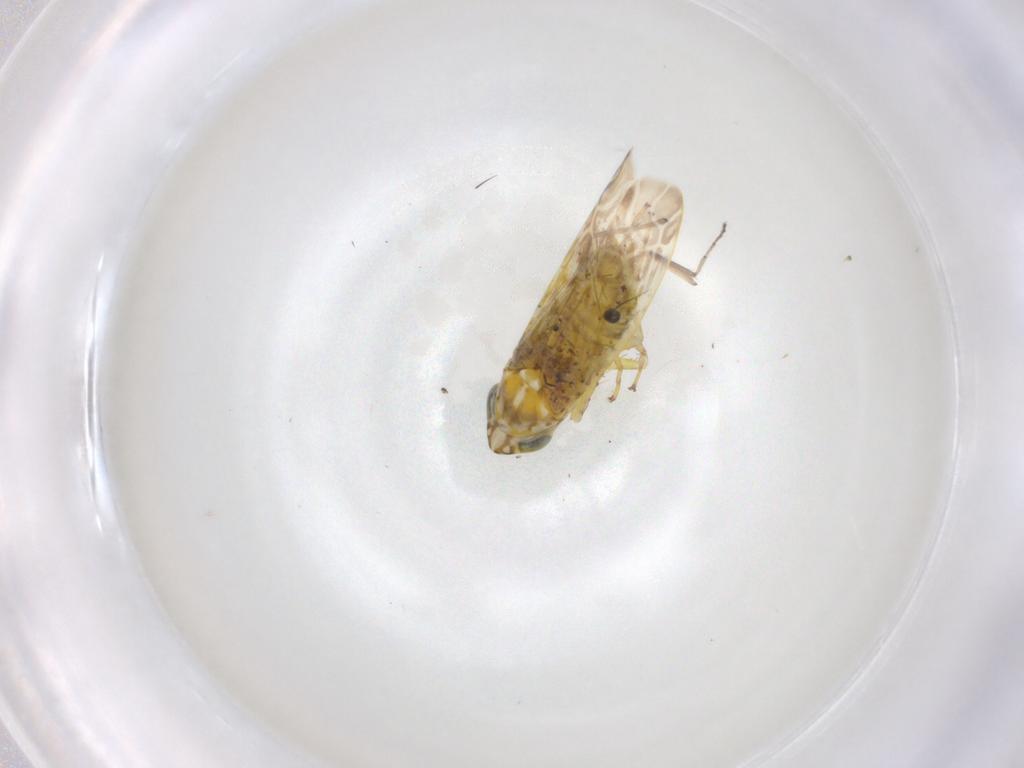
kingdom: Animalia
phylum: Arthropoda
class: Insecta
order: Hemiptera
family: Cicadellidae
